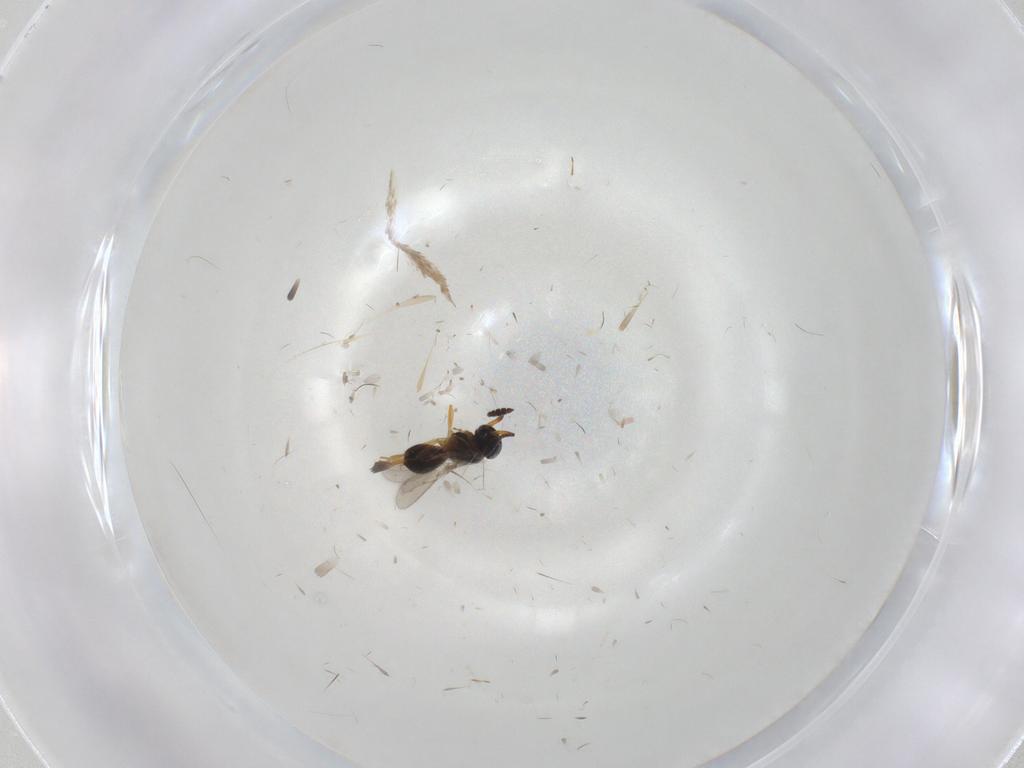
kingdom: Animalia
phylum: Arthropoda
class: Insecta
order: Hymenoptera
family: Scelionidae
